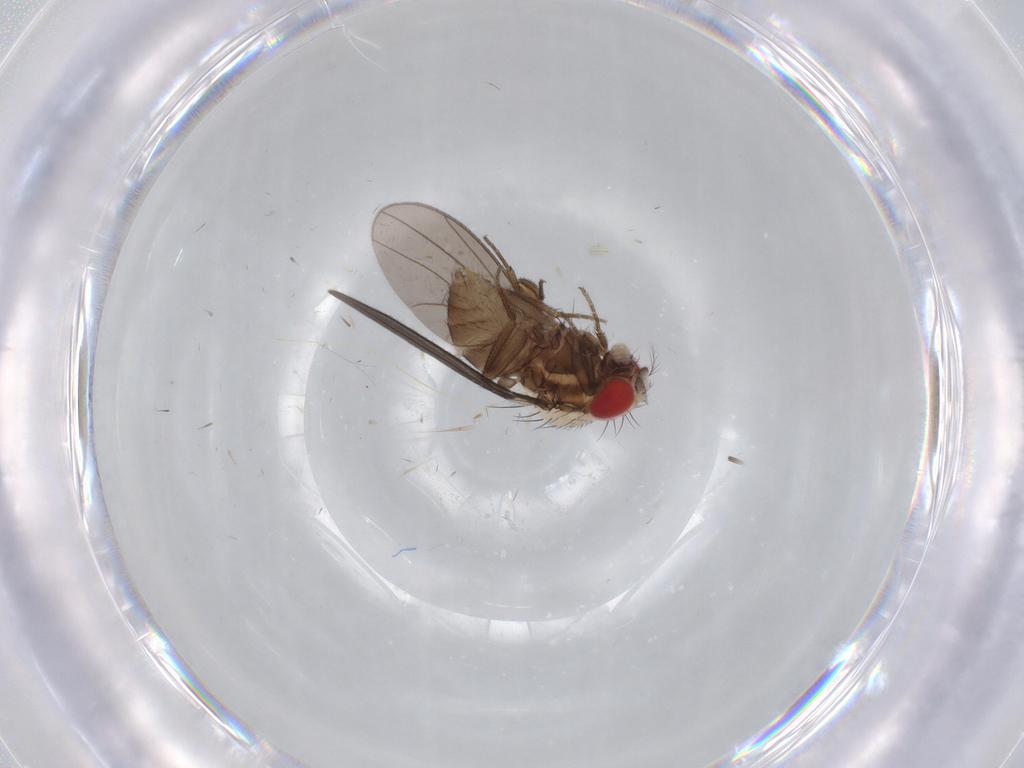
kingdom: Animalia
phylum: Arthropoda
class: Insecta
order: Diptera
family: Drosophilidae
